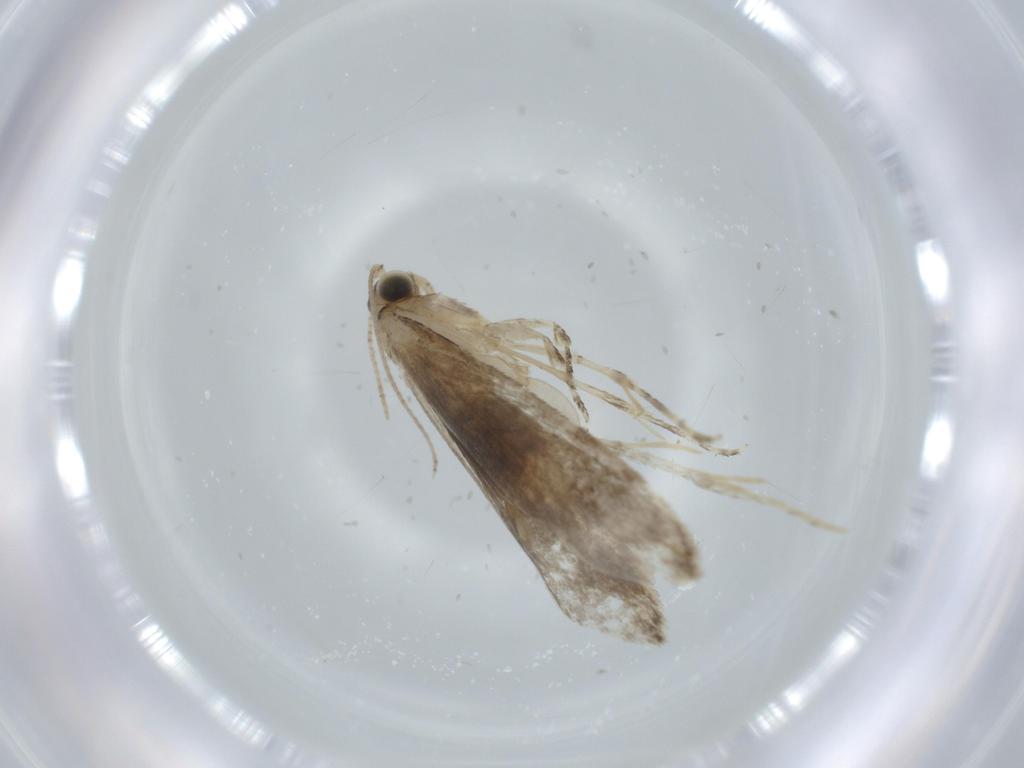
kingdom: Animalia
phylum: Arthropoda
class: Insecta
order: Lepidoptera
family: Tineidae
